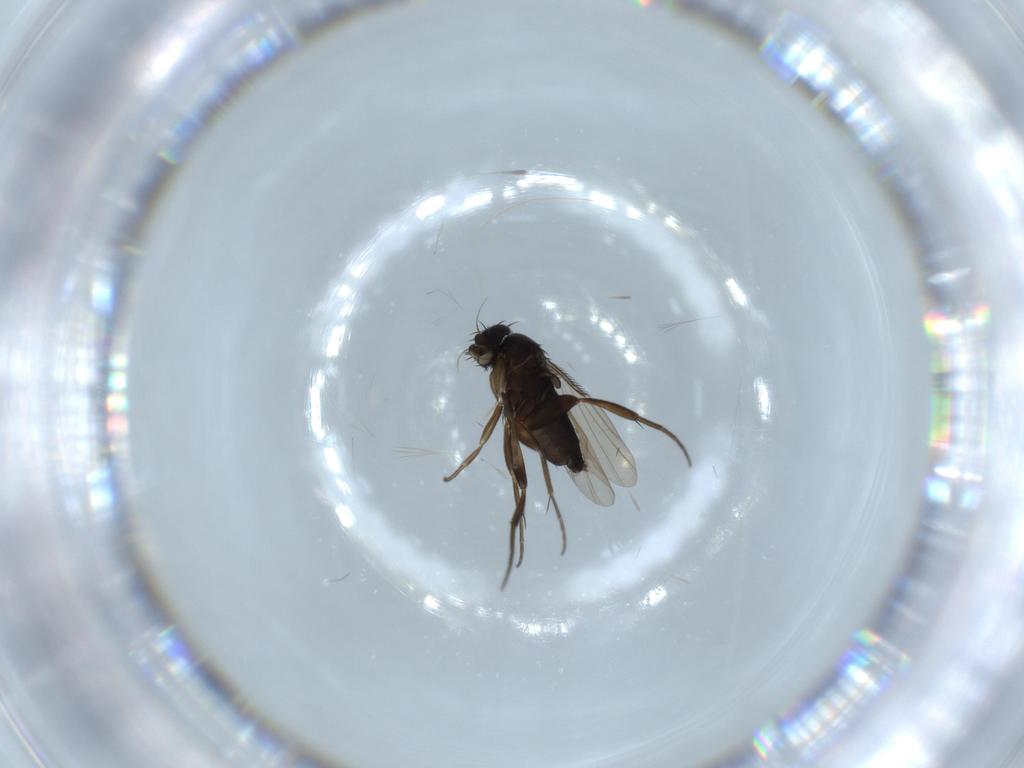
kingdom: Animalia
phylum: Arthropoda
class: Insecta
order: Diptera
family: Phoridae
